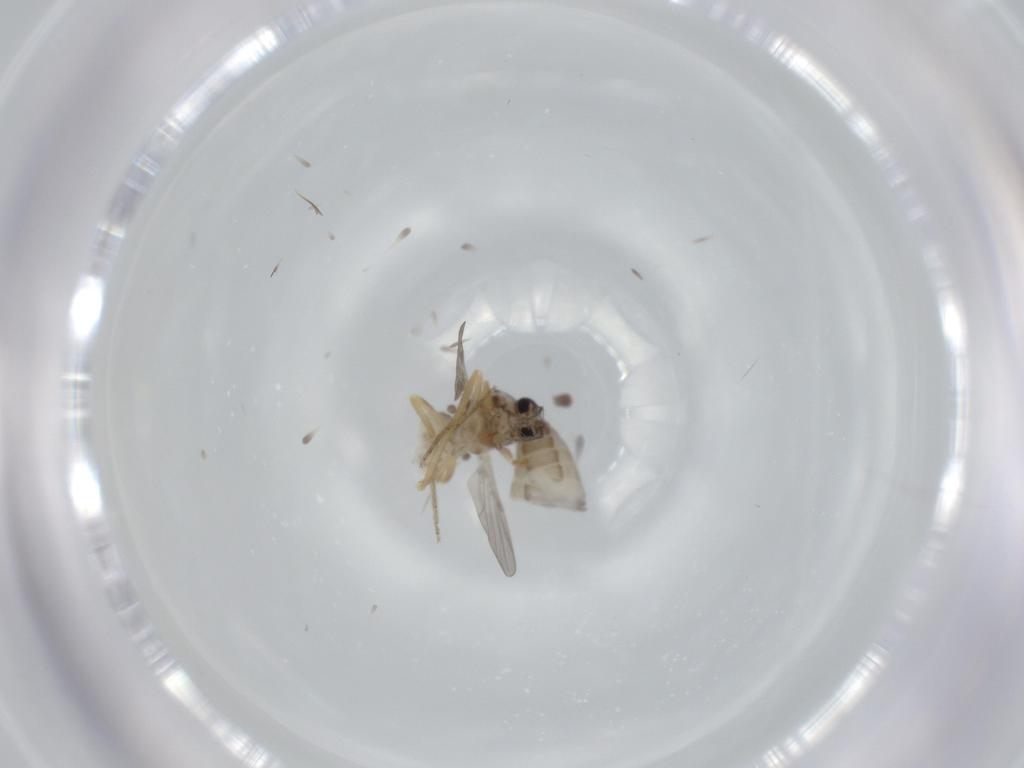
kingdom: Animalia
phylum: Arthropoda
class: Insecta
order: Diptera
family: Ceratopogonidae
